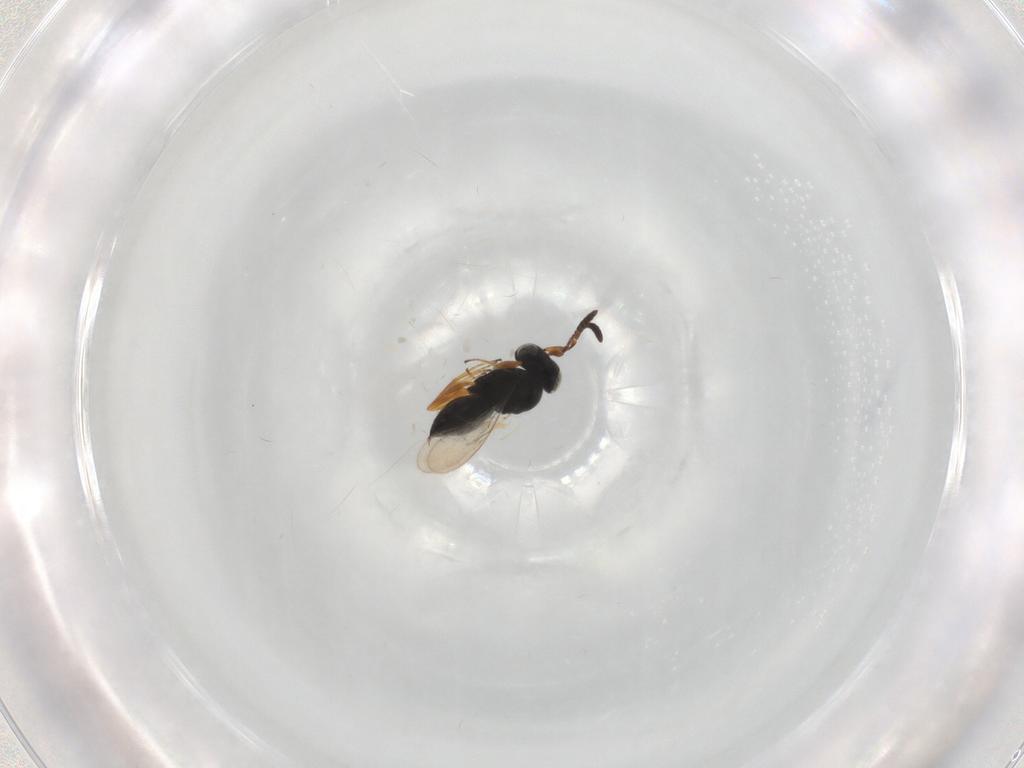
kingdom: Animalia
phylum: Arthropoda
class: Insecta
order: Hymenoptera
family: Scelionidae
